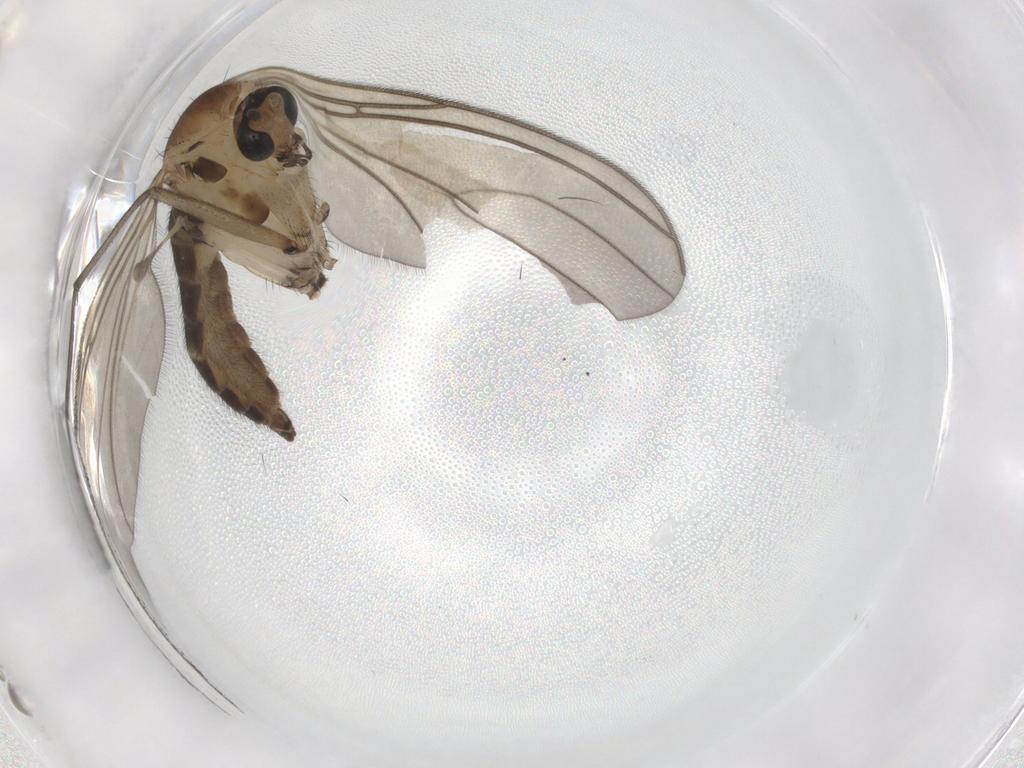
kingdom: Animalia
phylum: Arthropoda
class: Insecta
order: Diptera
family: Sciaridae
